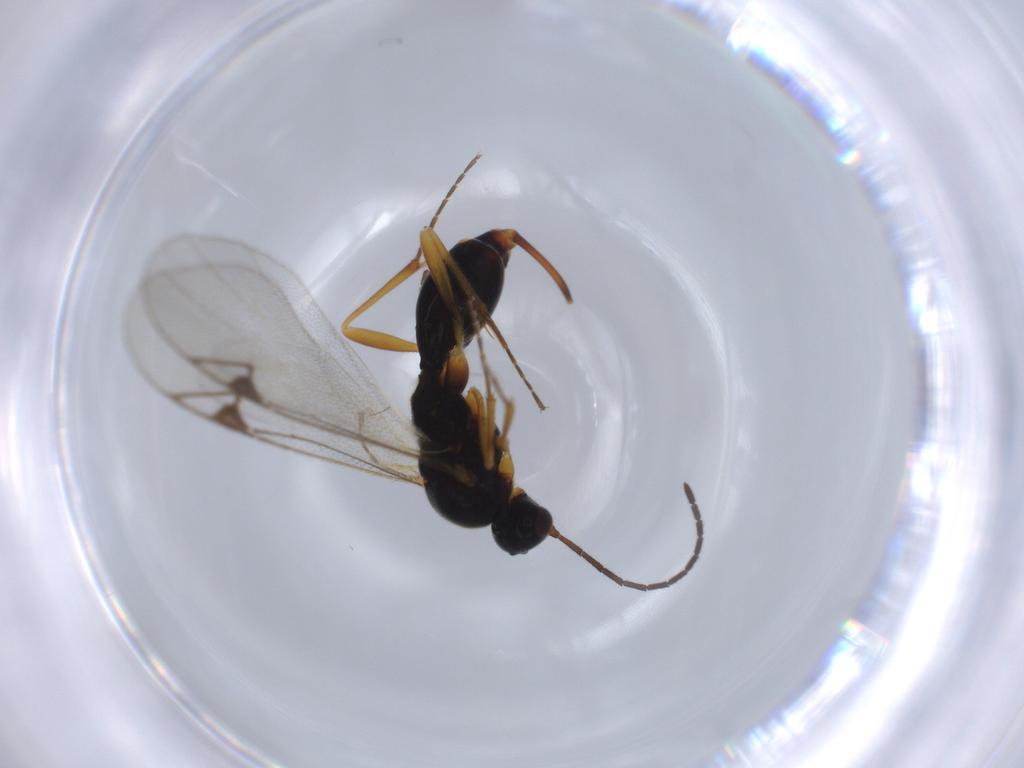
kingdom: Animalia
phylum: Arthropoda
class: Insecta
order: Hymenoptera
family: Proctotrupidae
